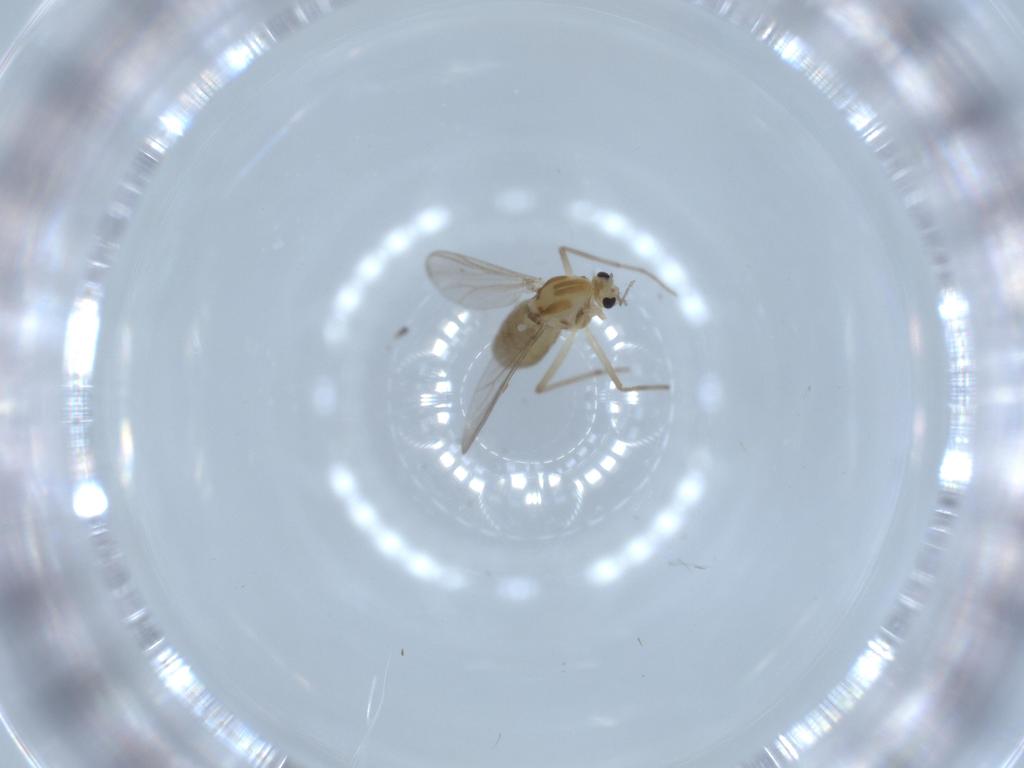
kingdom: Animalia
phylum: Arthropoda
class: Insecta
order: Diptera
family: Chironomidae
